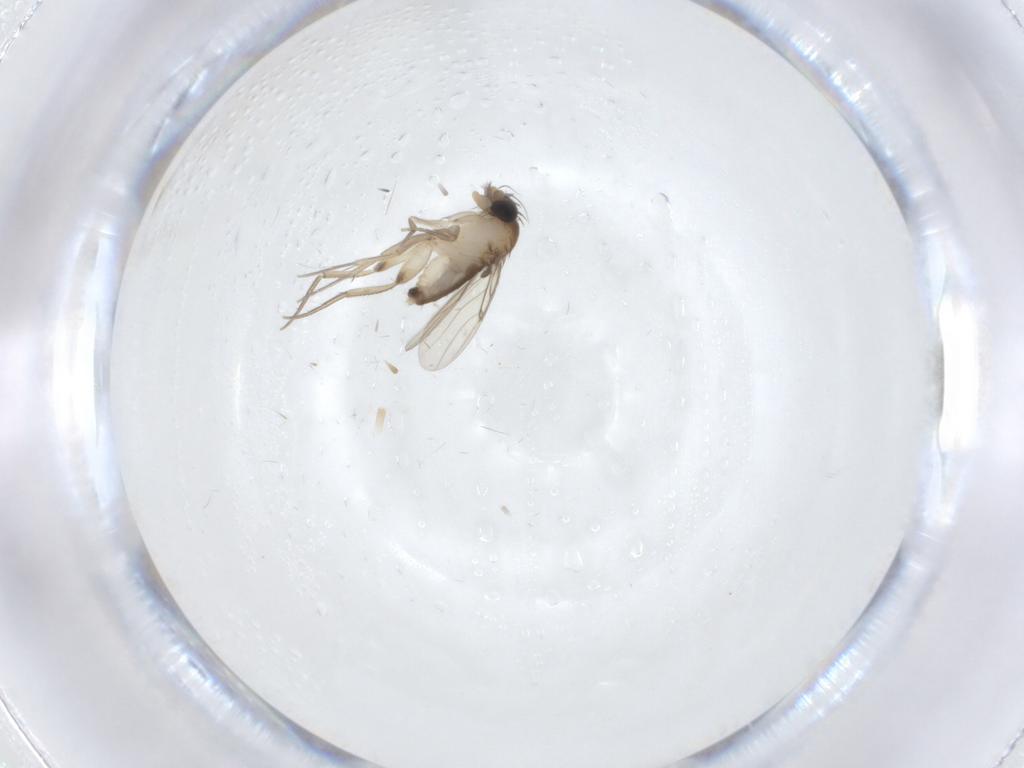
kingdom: Animalia
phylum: Arthropoda
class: Insecta
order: Diptera
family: Phoridae
